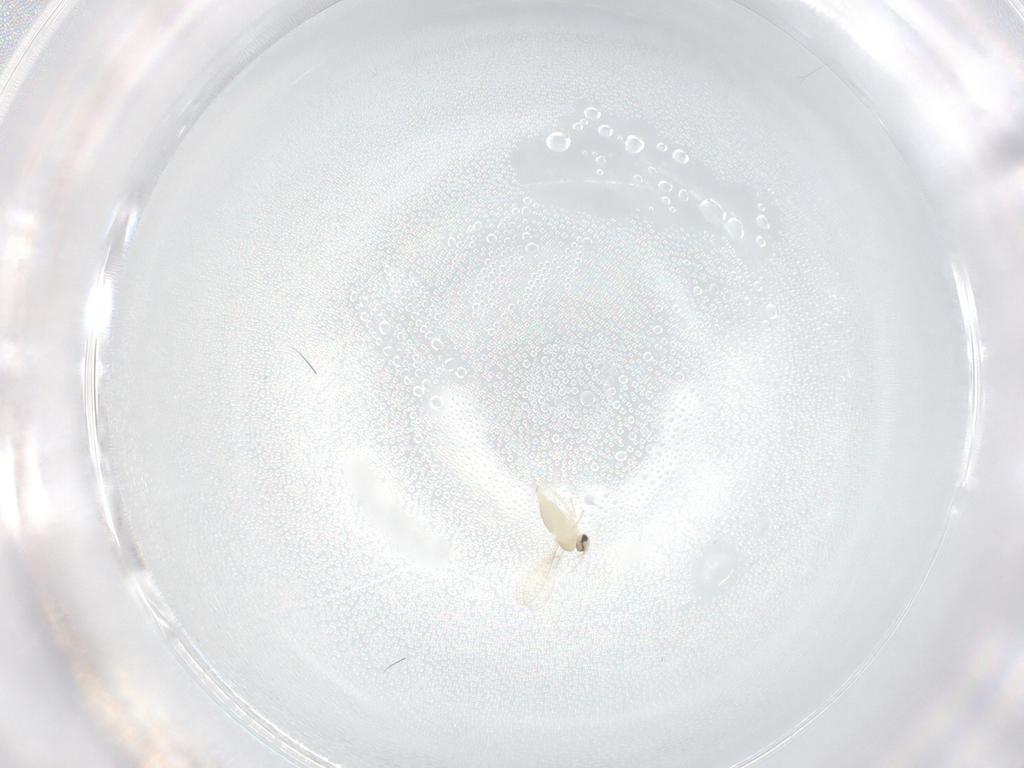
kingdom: Animalia
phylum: Arthropoda
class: Insecta
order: Diptera
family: Cecidomyiidae
